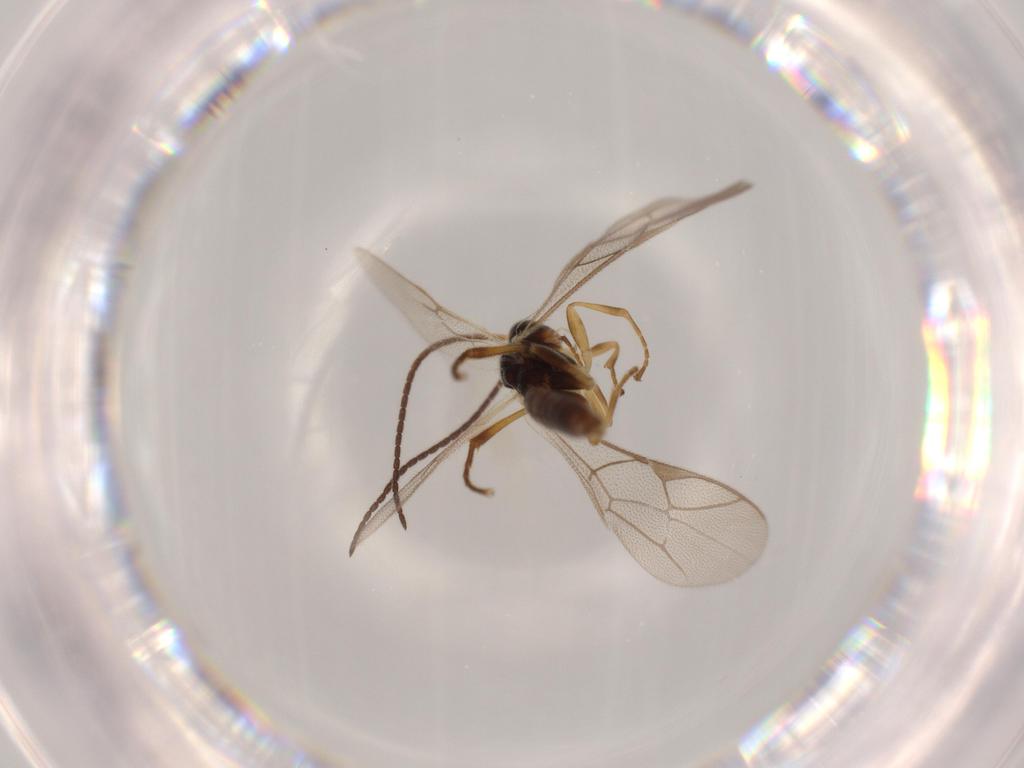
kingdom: Animalia
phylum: Arthropoda
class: Insecta
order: Hymenoptera
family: Ichneumonidae
